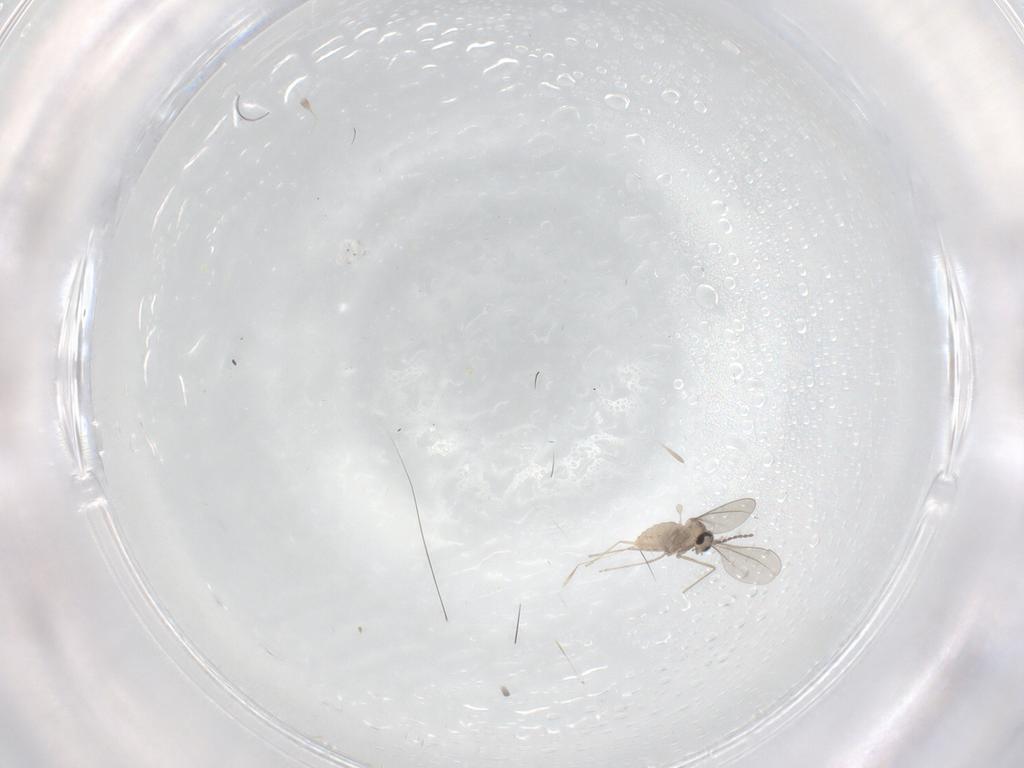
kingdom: Animalia
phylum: Arthropoda
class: Insecta
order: Diptera
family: Cecidomyiidae
